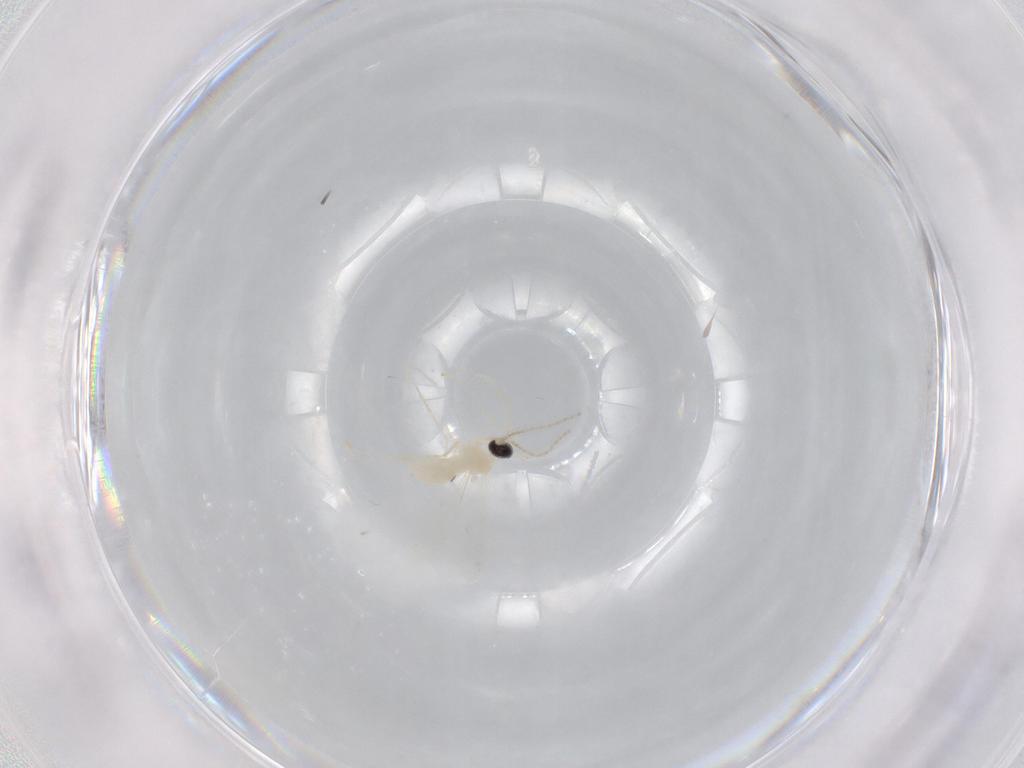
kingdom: Animalia
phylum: Arthropoda
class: Insecta
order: Diptera
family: Cecidomyiidae
